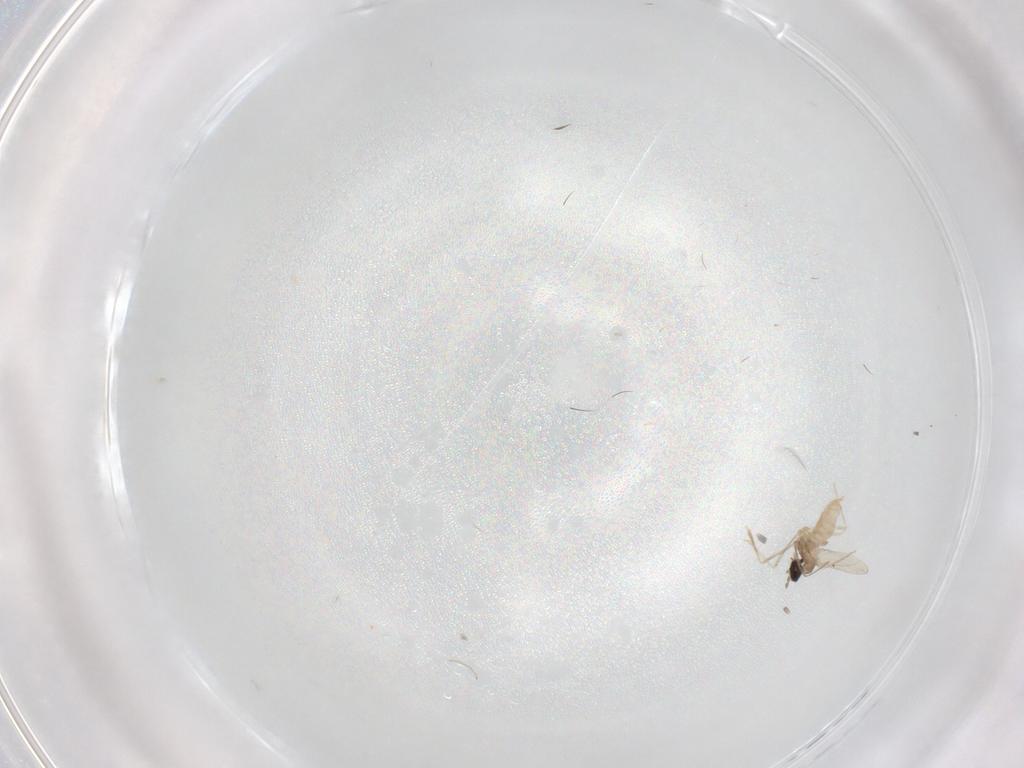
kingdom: Animalia
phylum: Arthropoda
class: Insecta
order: Diptera
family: Cecidomyiidae
